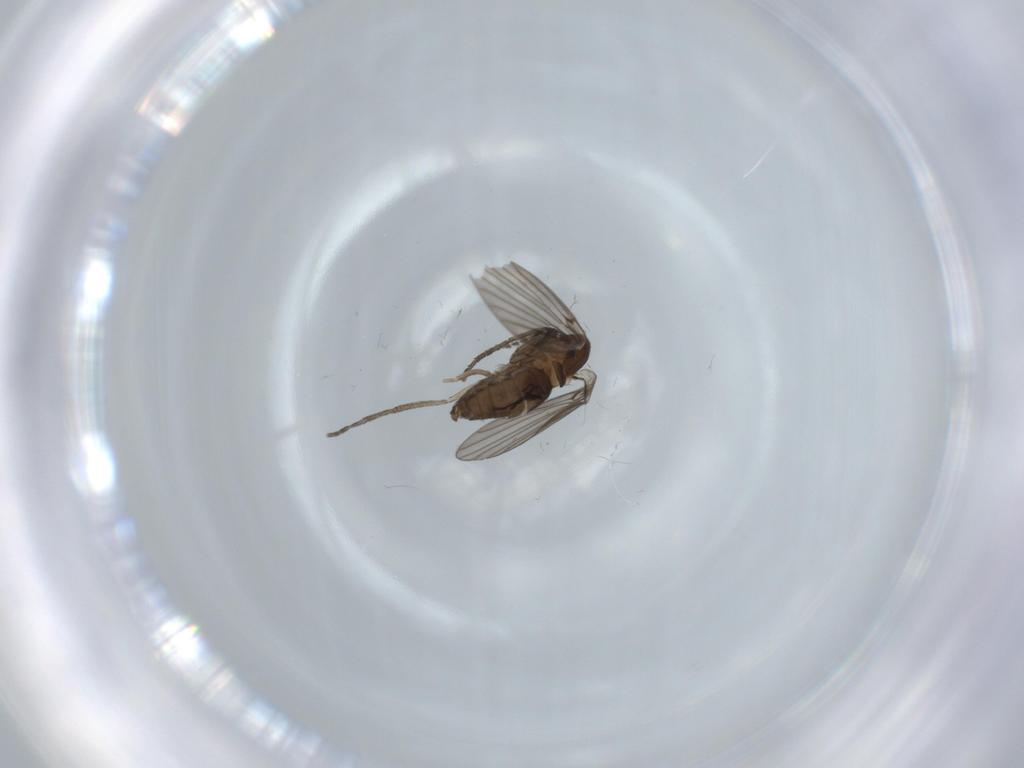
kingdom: Animalia
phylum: Arthropoda
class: Insecta
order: Diptera
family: Psychodidae
